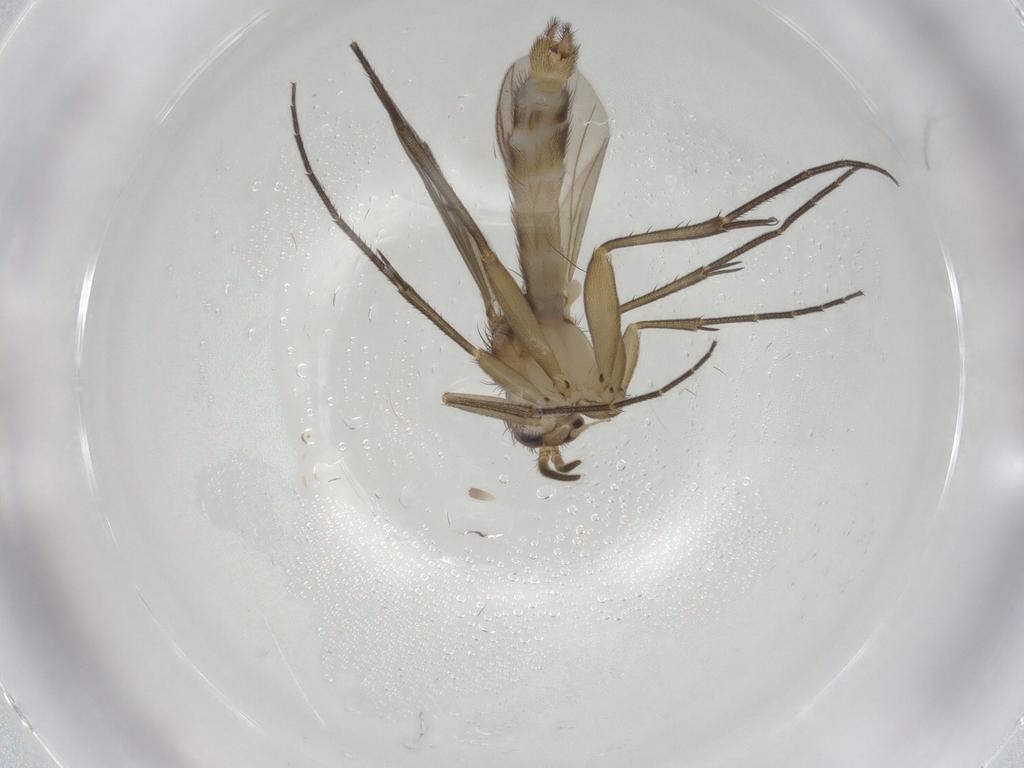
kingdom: Animalia
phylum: Arthropoda
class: Insecta
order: Diptera
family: Mycetophilidae
